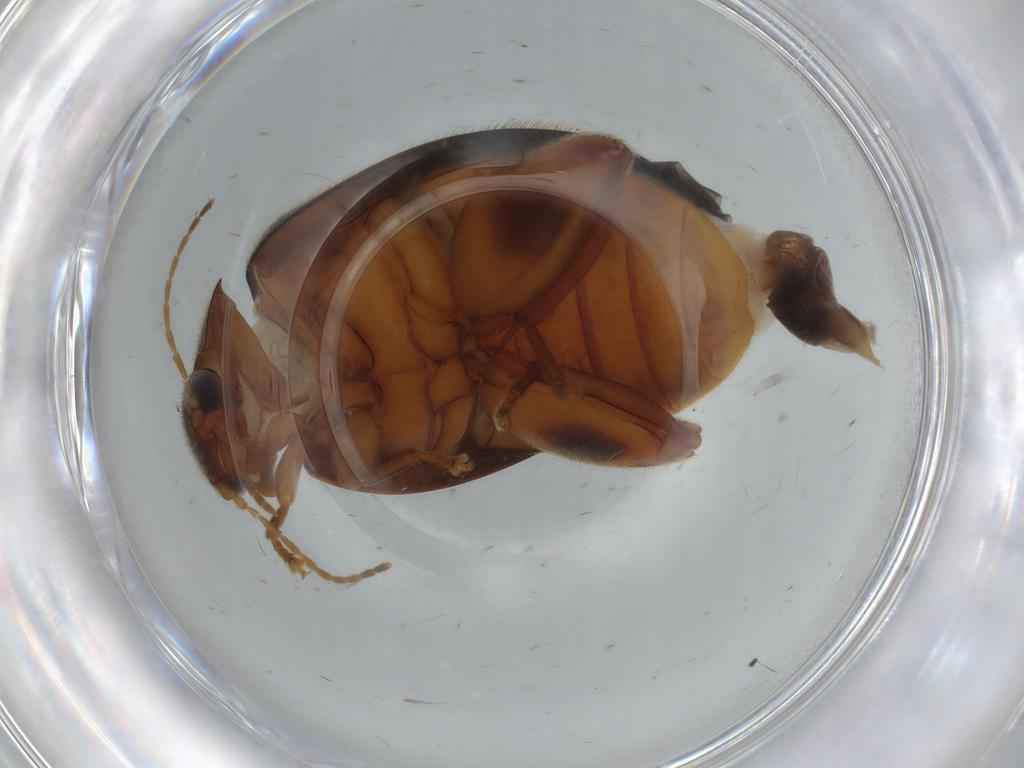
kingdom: Animalia
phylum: Arthropoda
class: Insecta
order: Coleoptera
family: Scirtidae
